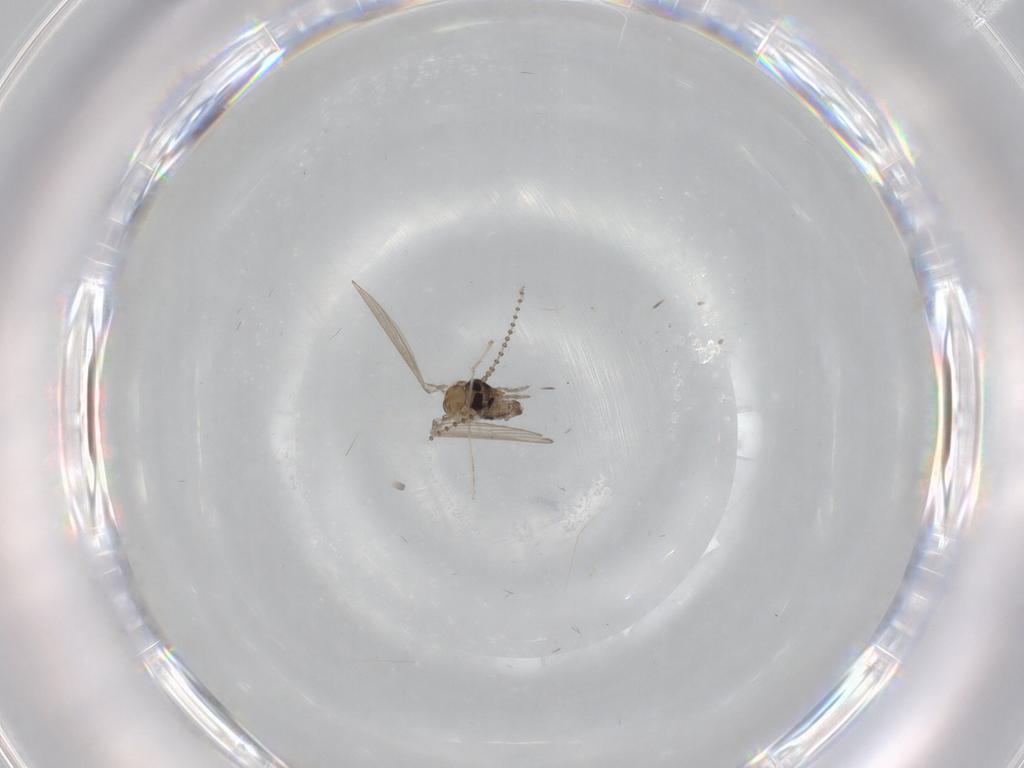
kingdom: Animalia
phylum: Arthropoda
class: Insecta
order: Diptera
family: Psychodidae
